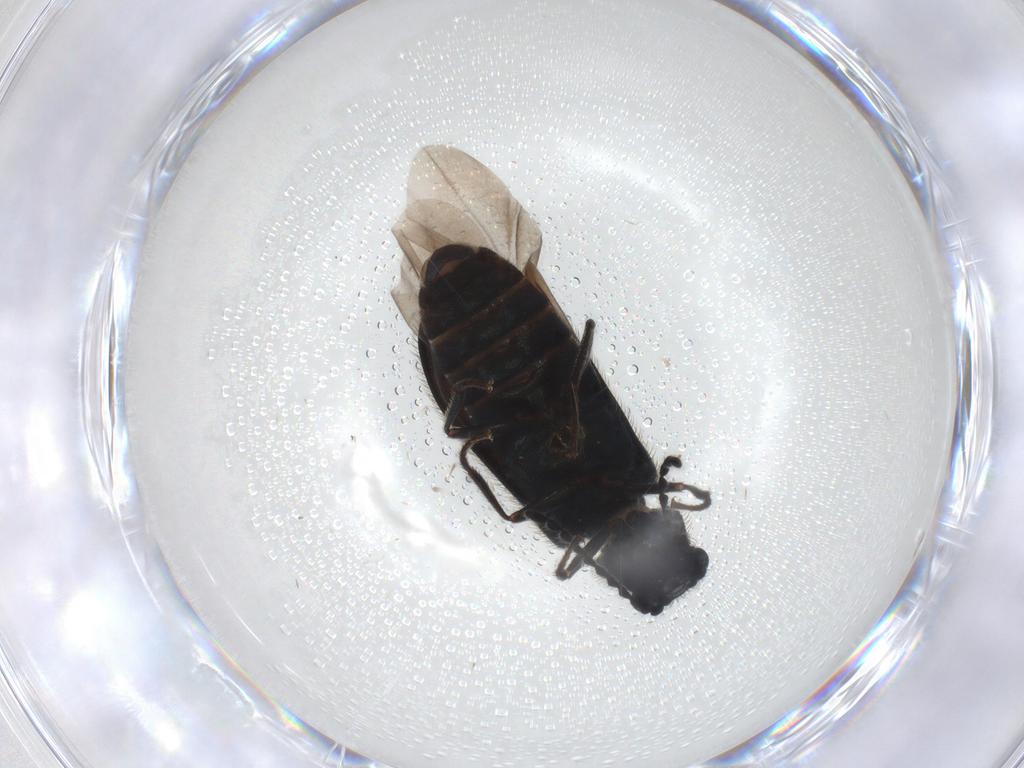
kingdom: Animalia
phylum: Arthropoda
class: Insecta
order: Coleoptera
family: Melyridae
